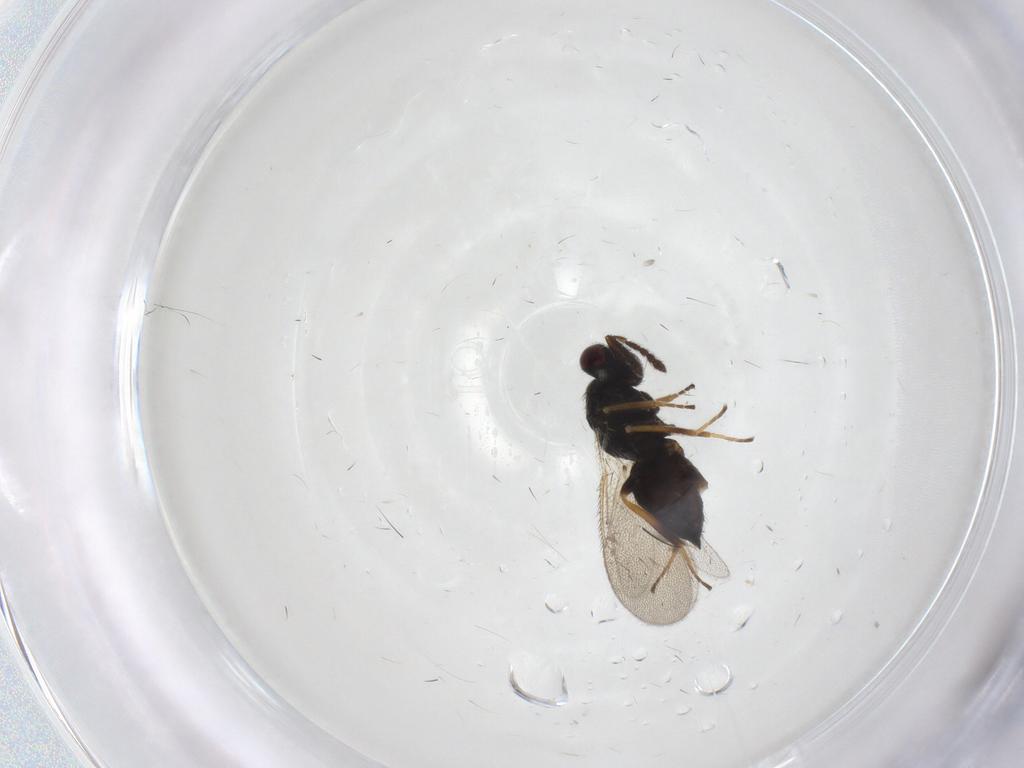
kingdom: Animalia
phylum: Arthropoda
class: Insecta
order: Hymenoptera
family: Eulophidae
